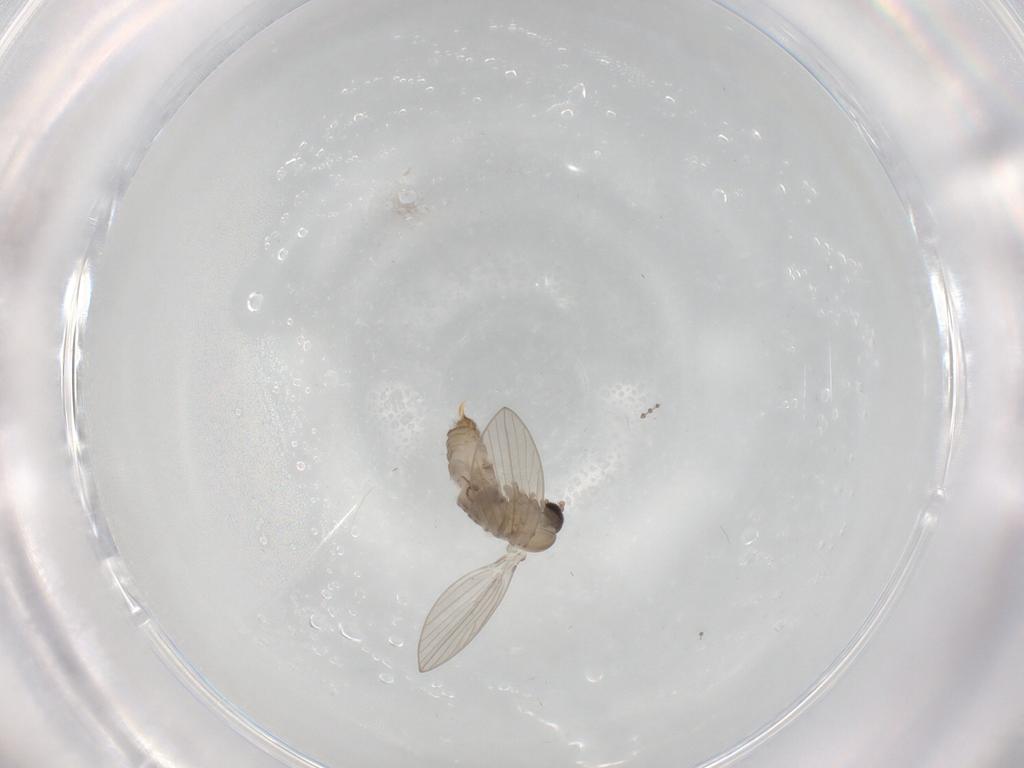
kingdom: Animalia
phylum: Arthropoda
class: Insecta
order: Diptera
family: Psychodidae
